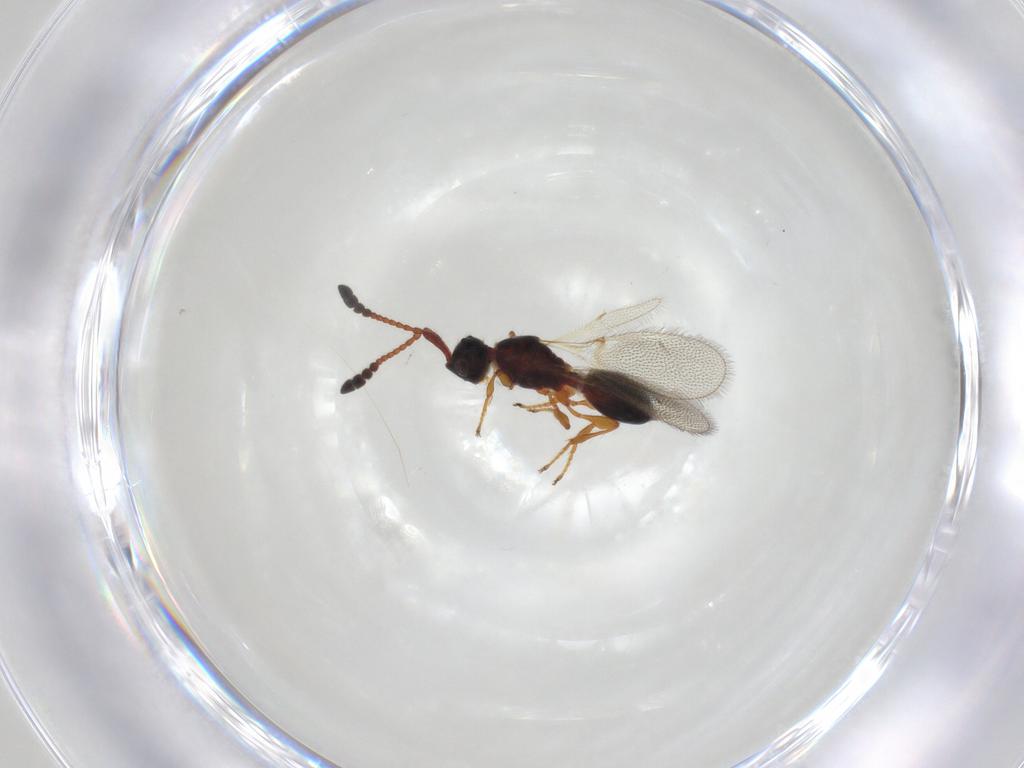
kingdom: Animalia
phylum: Arthropoda
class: Insecta
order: Hymenoptera
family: Diapriidae
